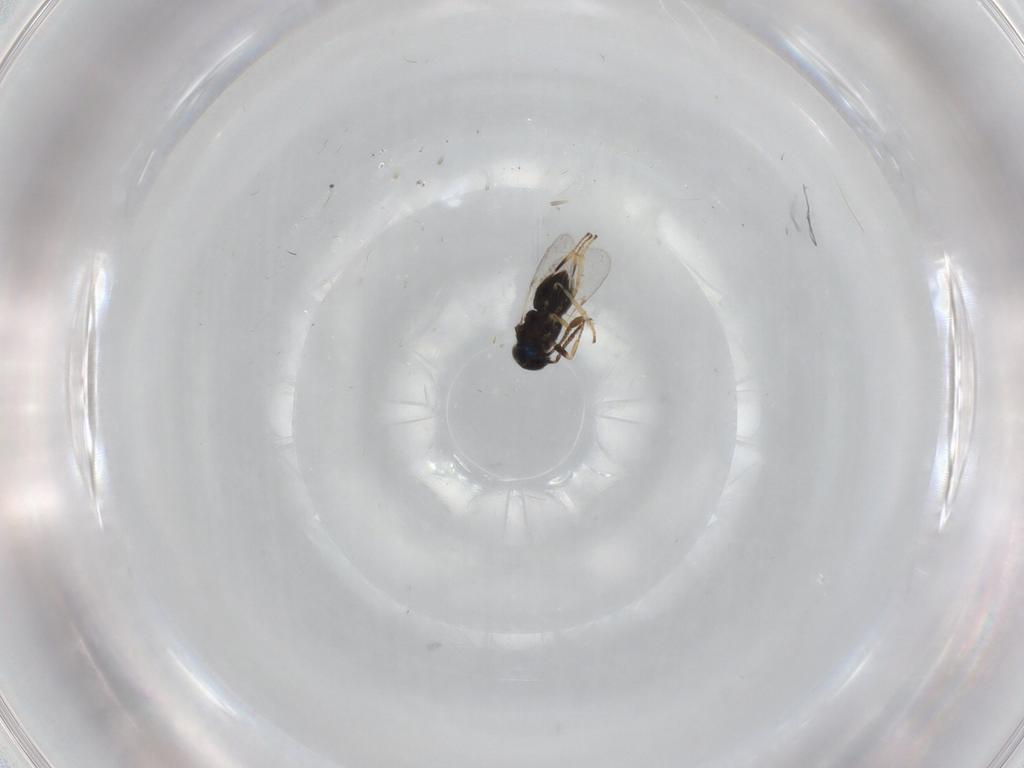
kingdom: Animalia
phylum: Arthropoda
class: Insecta
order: Hymenoptera
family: Encyrtidae
